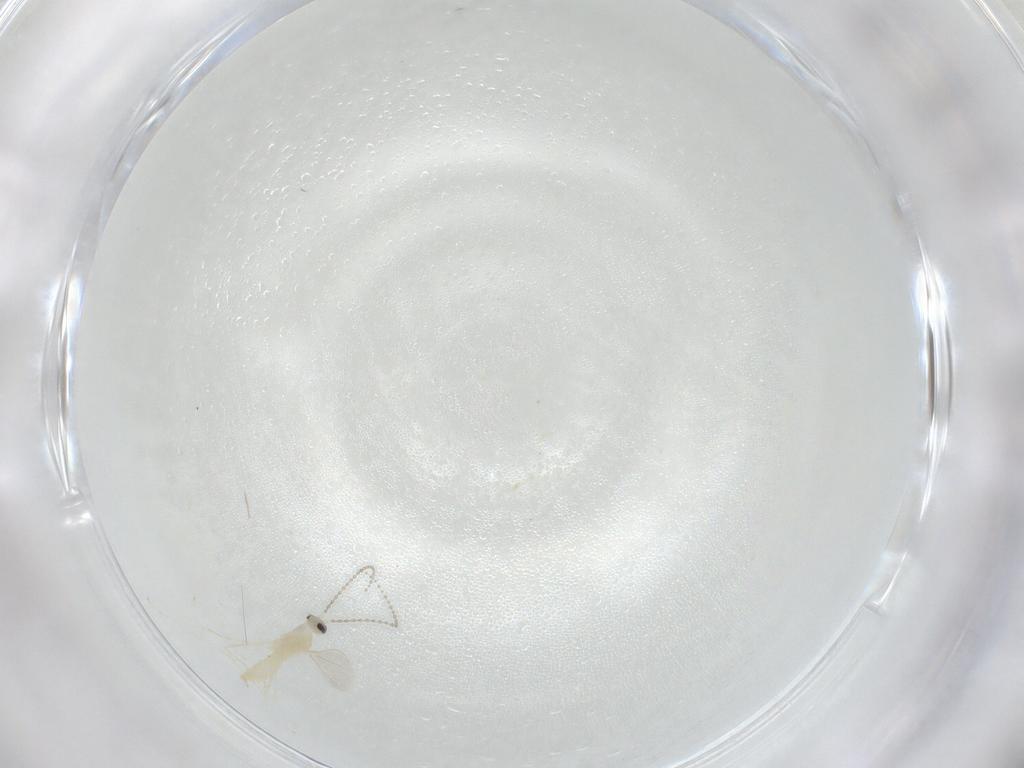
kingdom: Animalia
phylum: Arthropoda
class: Insecta
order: Diptera
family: Cecidomyiidae
